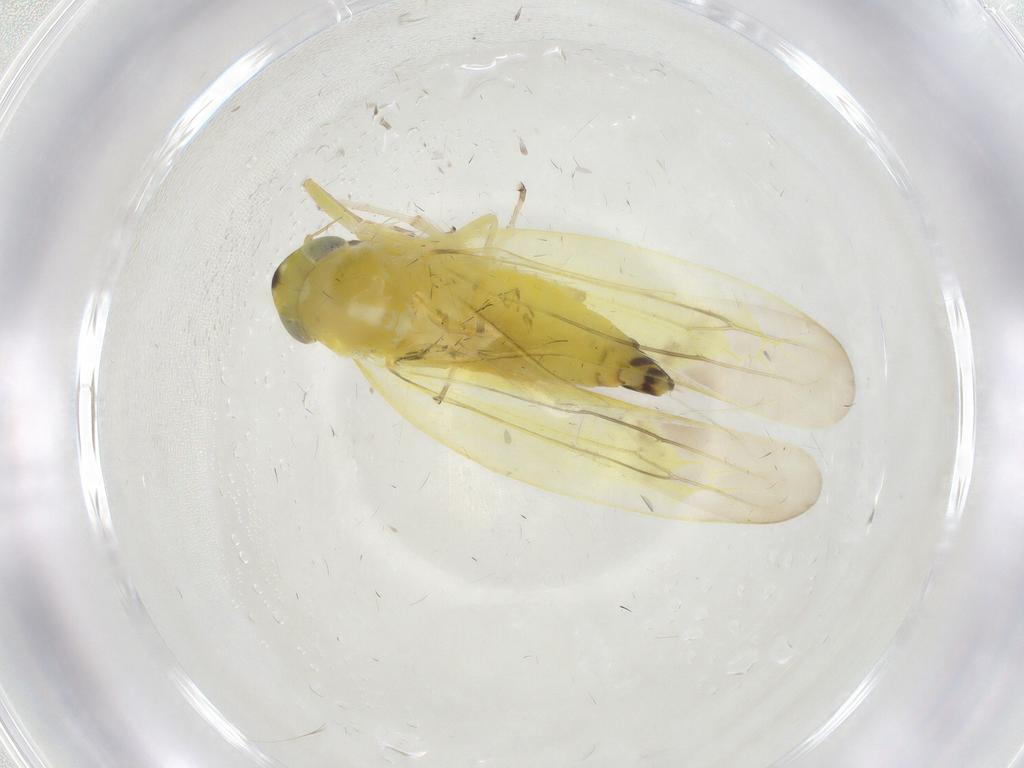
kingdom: Animalia
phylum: Arthropoda
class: Insecta
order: Hemiptera
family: Cicadellidae
